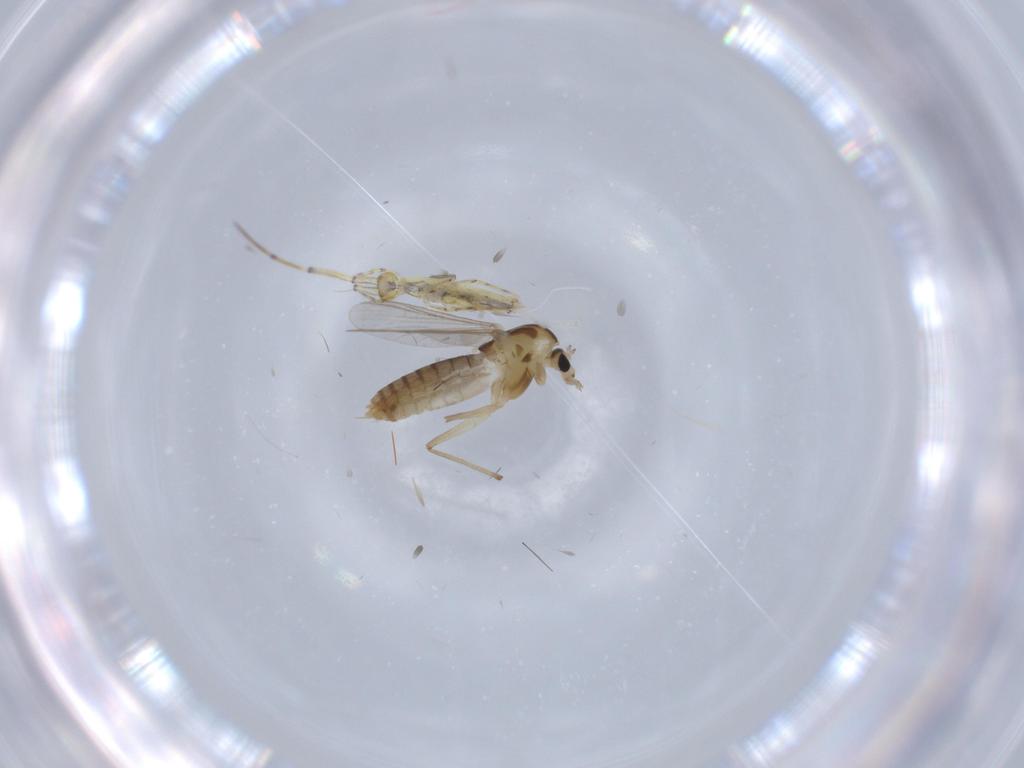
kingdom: Animalia
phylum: Arthropoda
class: Insecta
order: Diptera
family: Chironomidae
